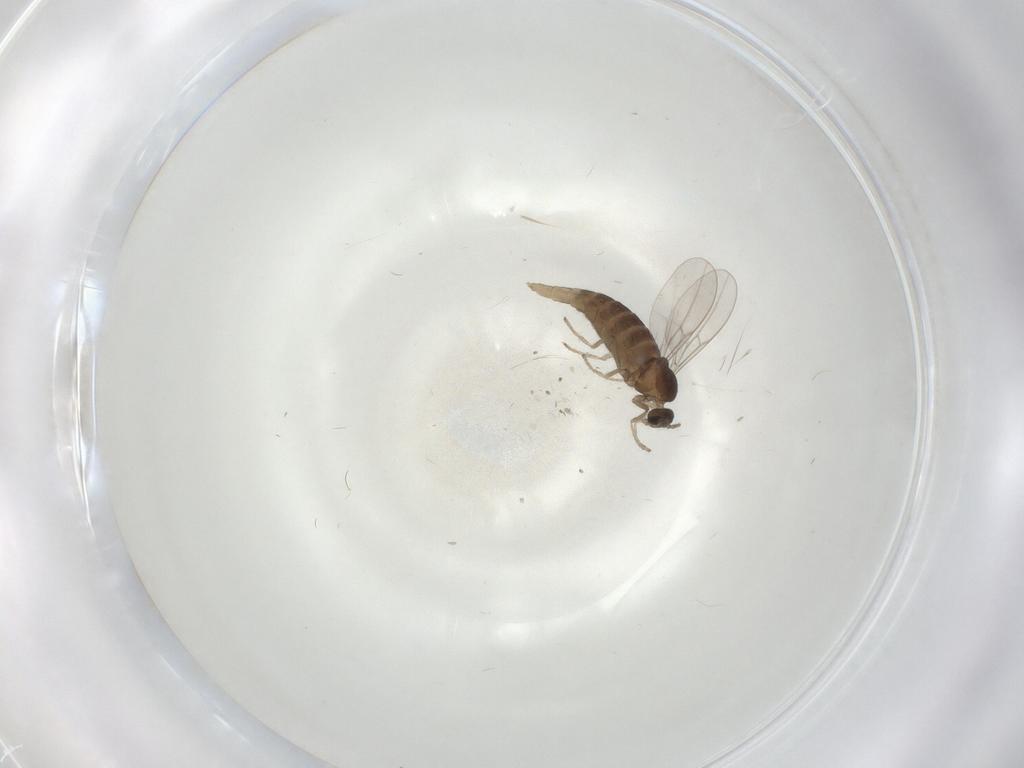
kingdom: Animalia
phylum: Arthropoda
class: Insecta
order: Diptera
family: Cecidomyiidae
